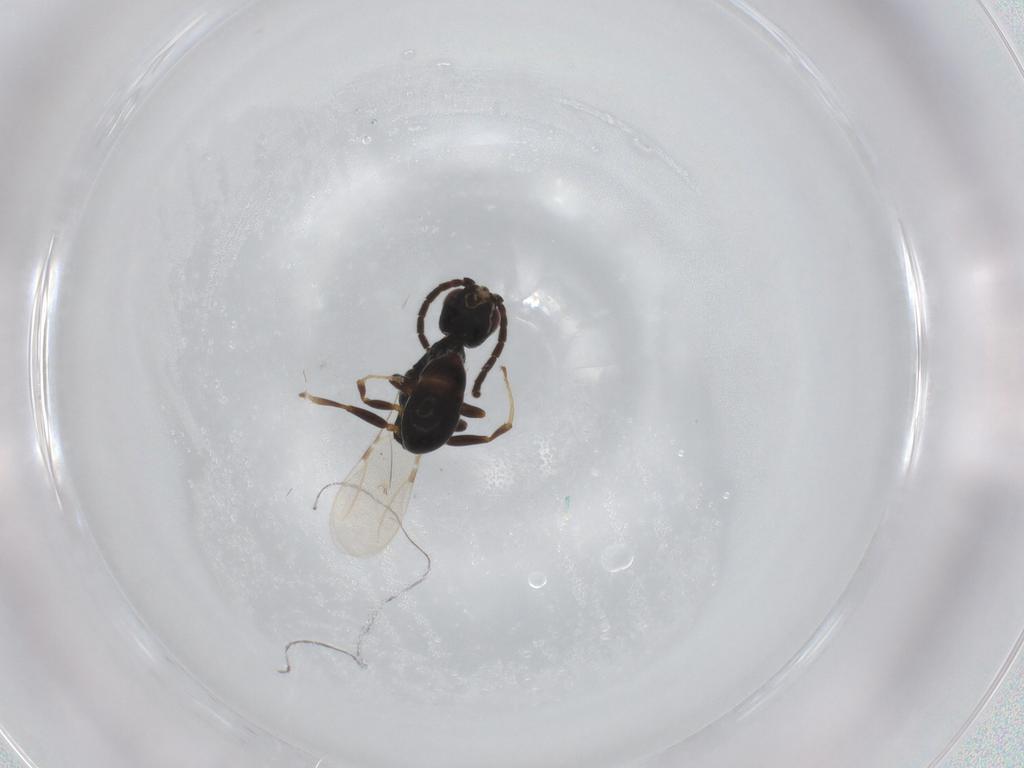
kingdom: Animalia
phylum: Arthropoda
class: Insecta
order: Hymenoptera
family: Bethylidae
